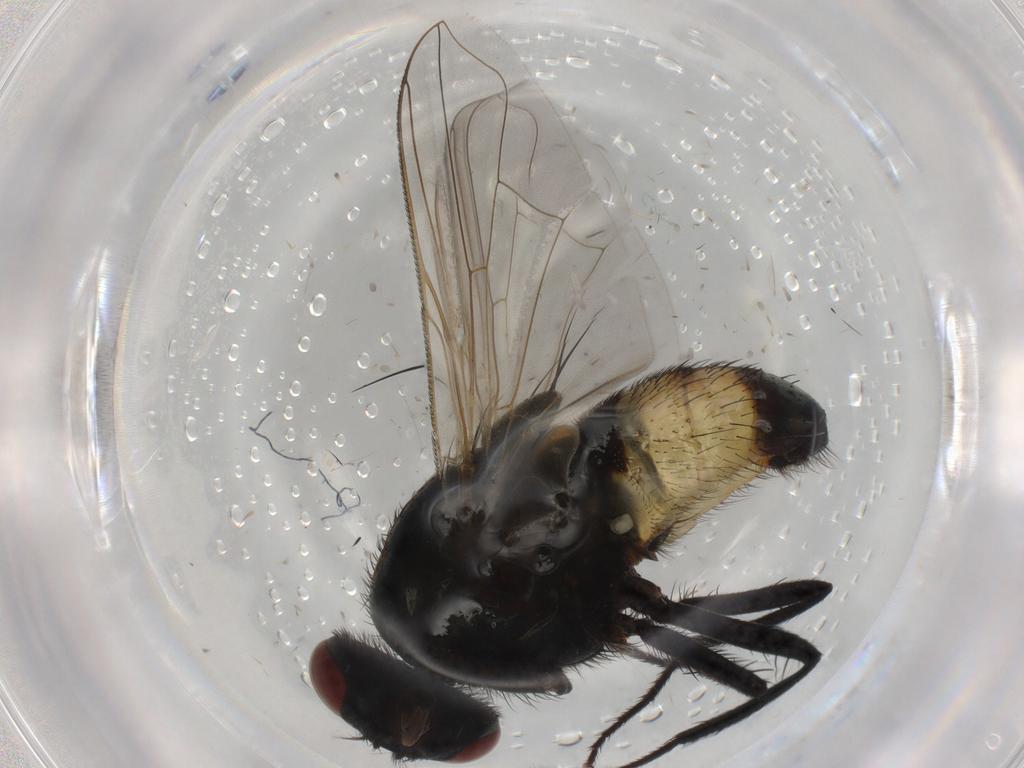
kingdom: Animalia
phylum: Arthropoda
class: Insecta
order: Diptera
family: Muscidae
